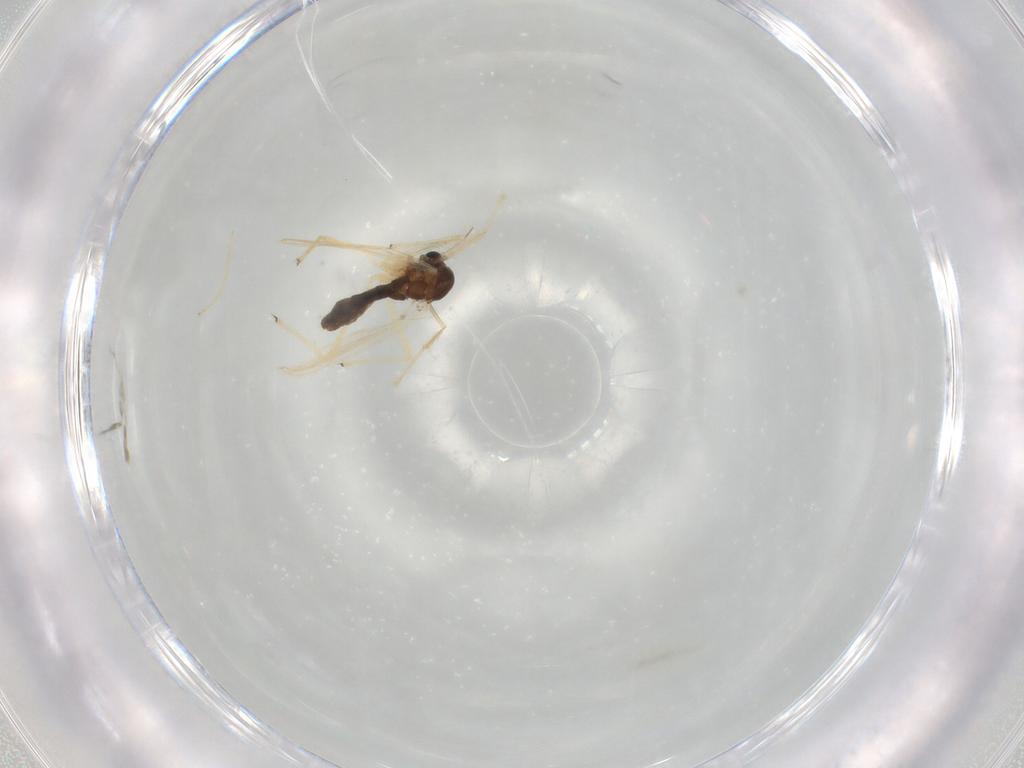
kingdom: Animalia
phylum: Arthropoda
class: Insecta
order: Diptera
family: Chironomidae
